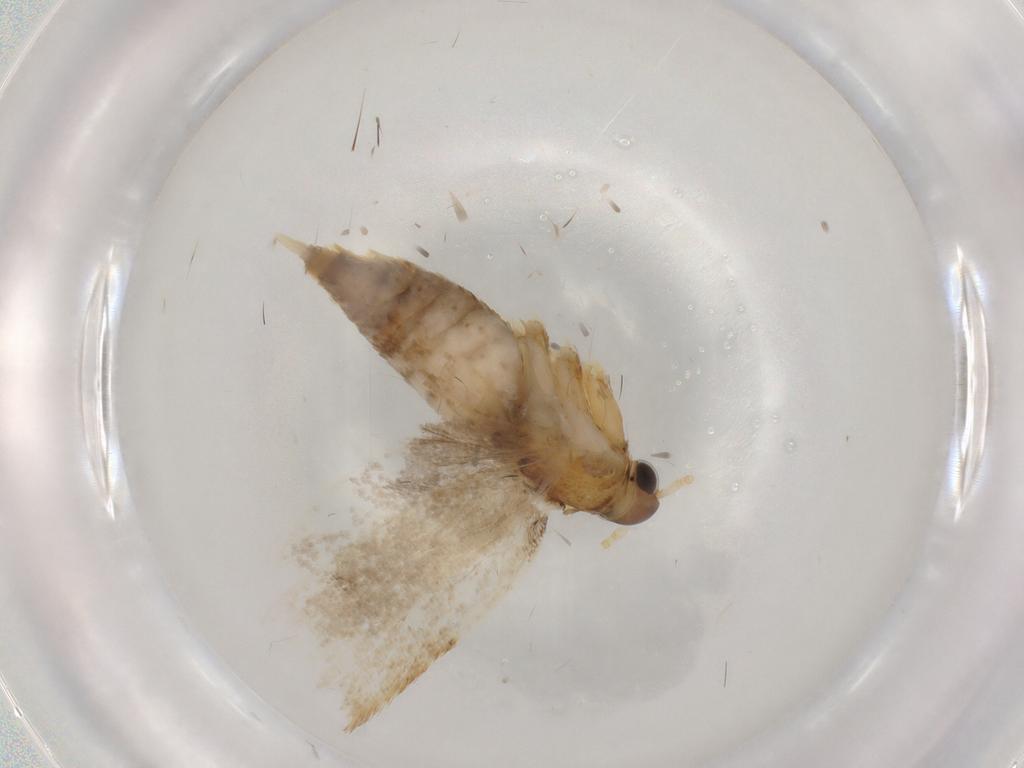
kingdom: Animalia
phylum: Arthropoda
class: Insecta
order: Lepidoptera
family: Lecithoceridae
